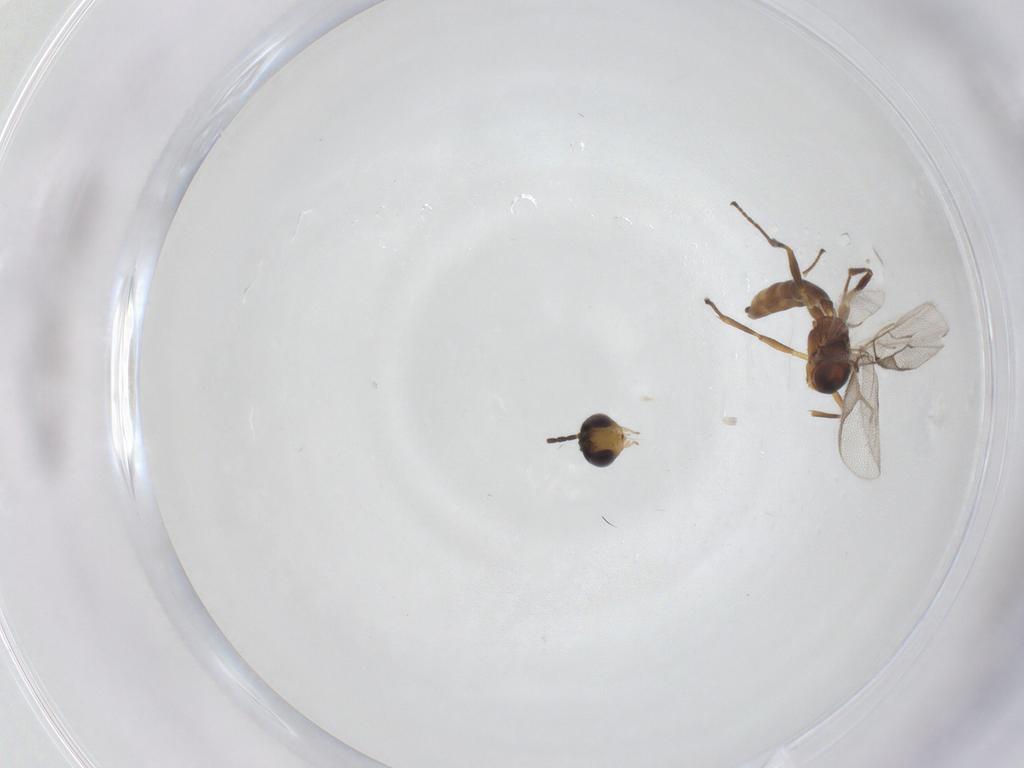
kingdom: Animalia
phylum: Arthropoda
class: Insecta
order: Hymenoptera
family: Braconidae
